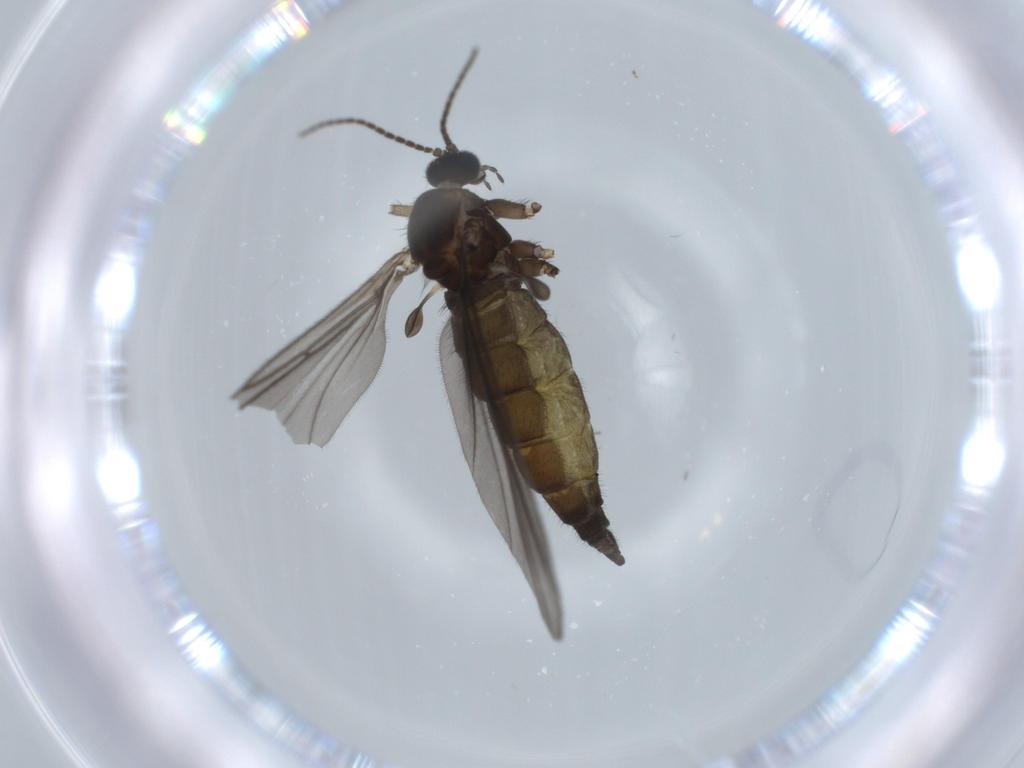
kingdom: Animalia
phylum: Arthropoda
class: Insecta
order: Diptera
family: Sciaridae
